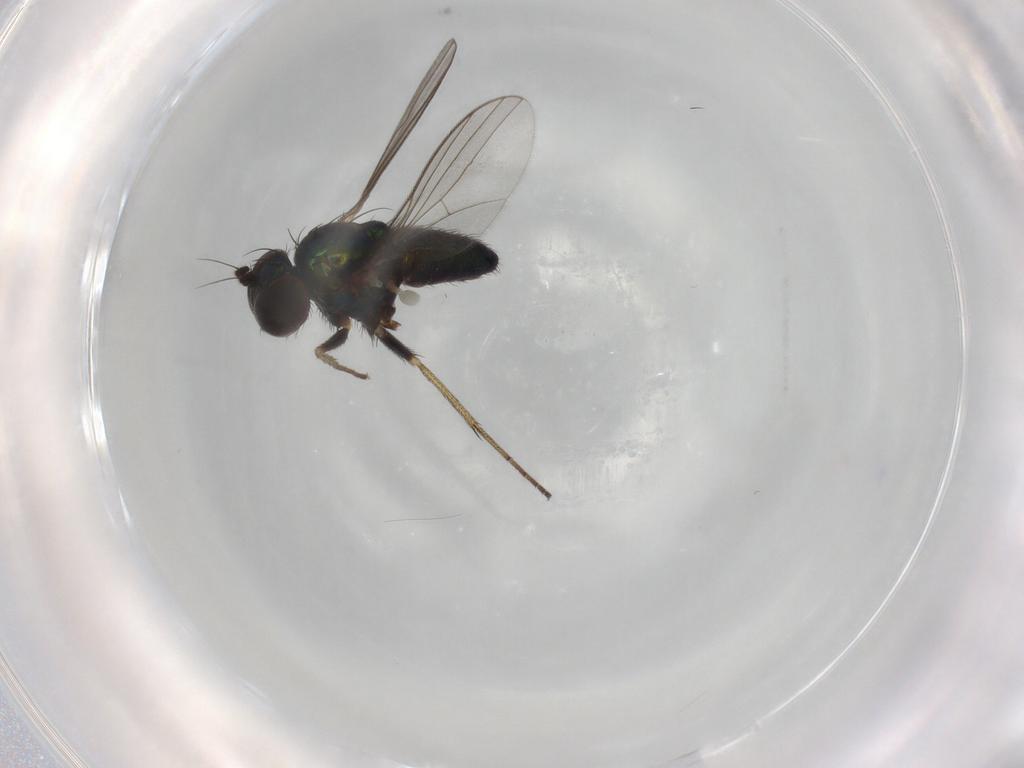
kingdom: Animalia
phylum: Arthropoda
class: Insecta
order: Diptera
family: Dolichopodidae
